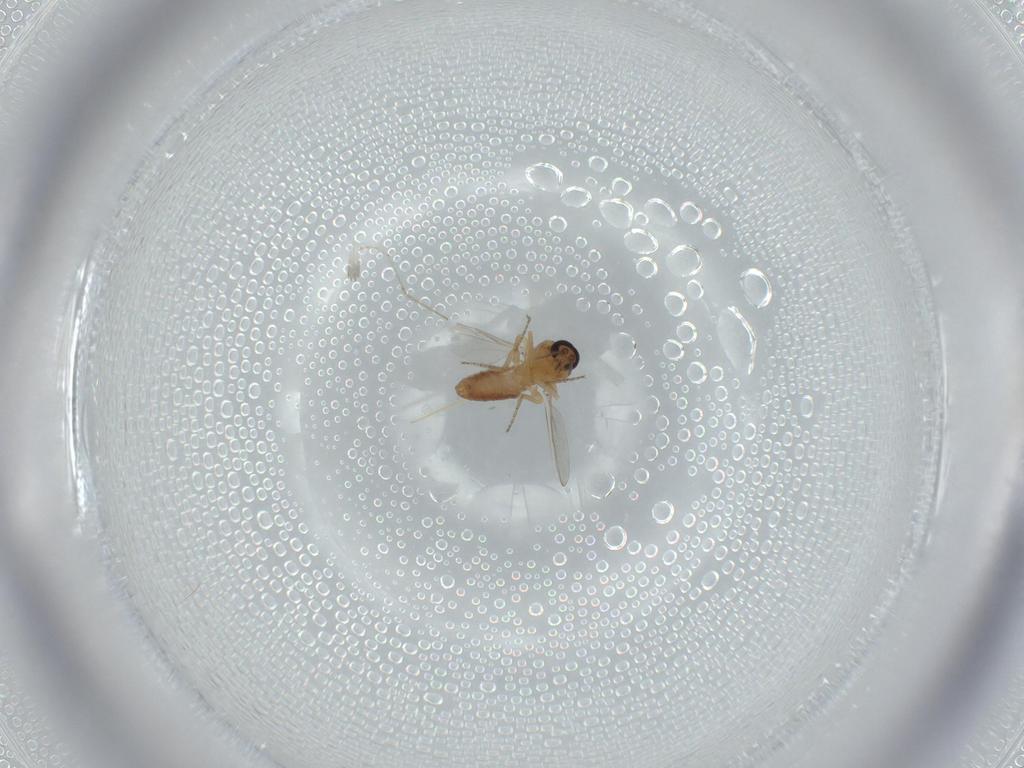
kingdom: Animalia
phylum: Arthropoda
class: Insecta
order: Diptera
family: Ceratopogonidae
